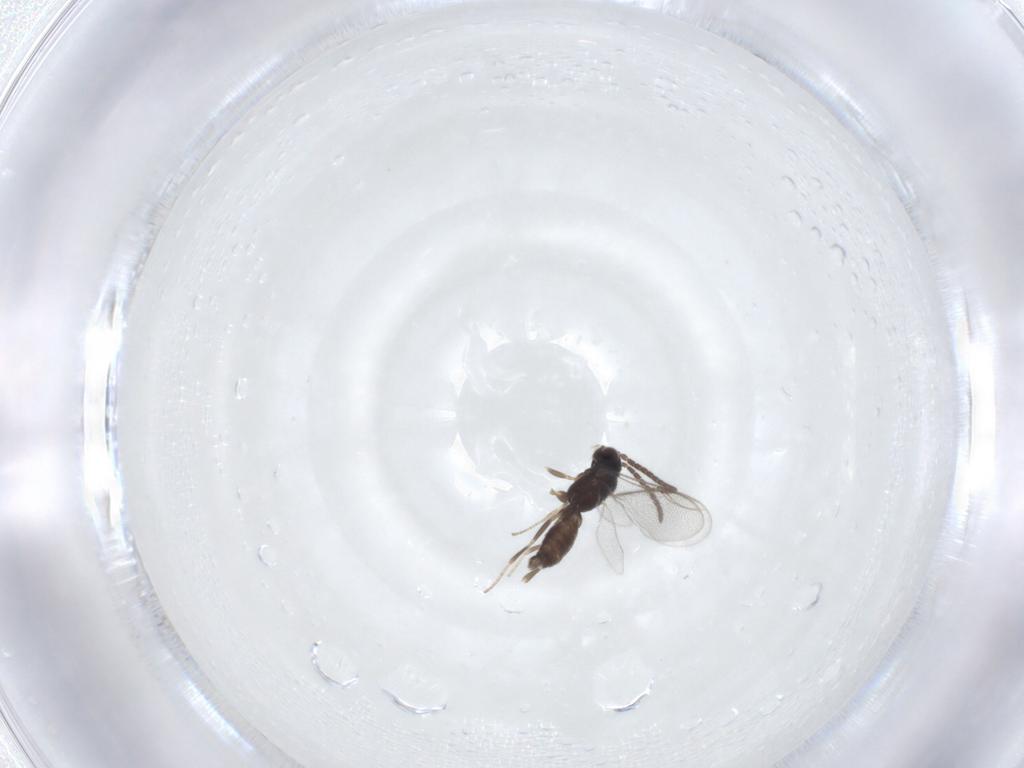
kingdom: Animalia
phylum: Arthropoda
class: Insecta
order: Hymenoptera
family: Dryinidae
